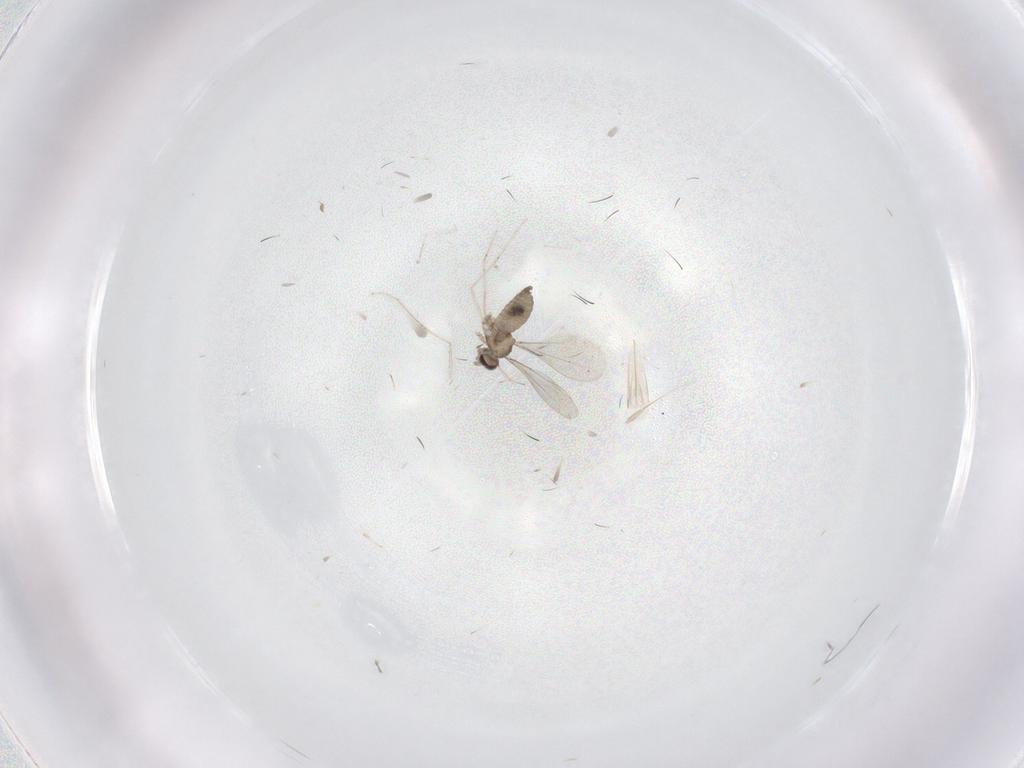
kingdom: Animalia
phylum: Arthropoda
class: Insecta
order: Diptera
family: Cecidomyiidae
